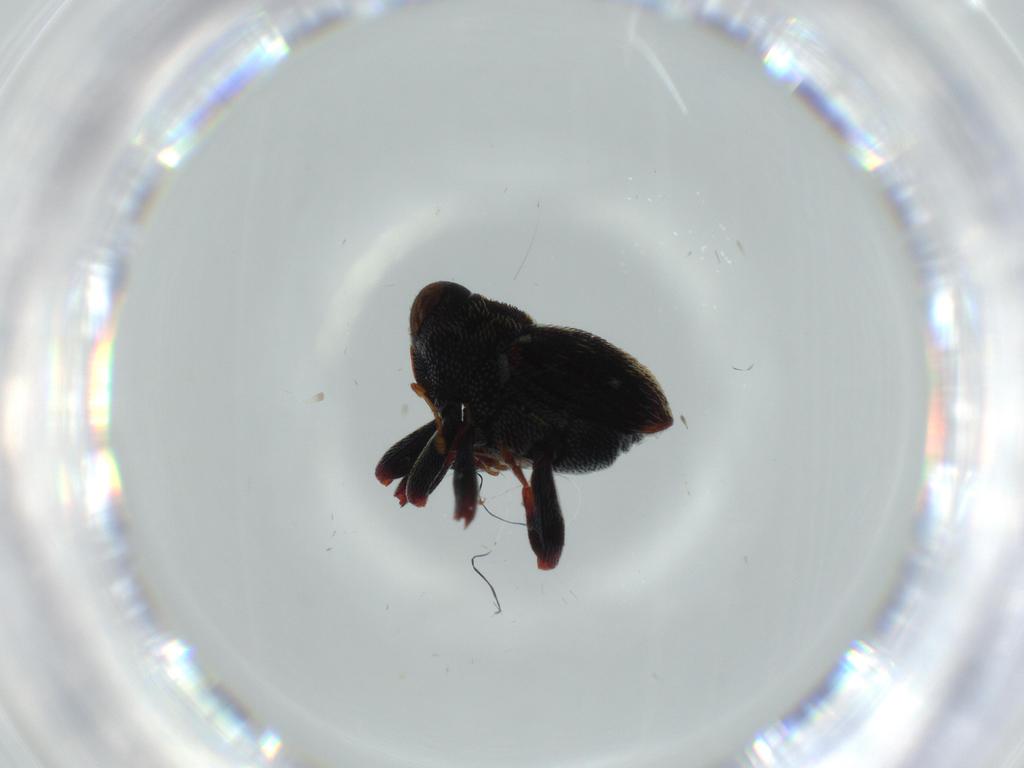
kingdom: Animalia
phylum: Arthropoda
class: Insecta
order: Coleoptera
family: Curculionidae
